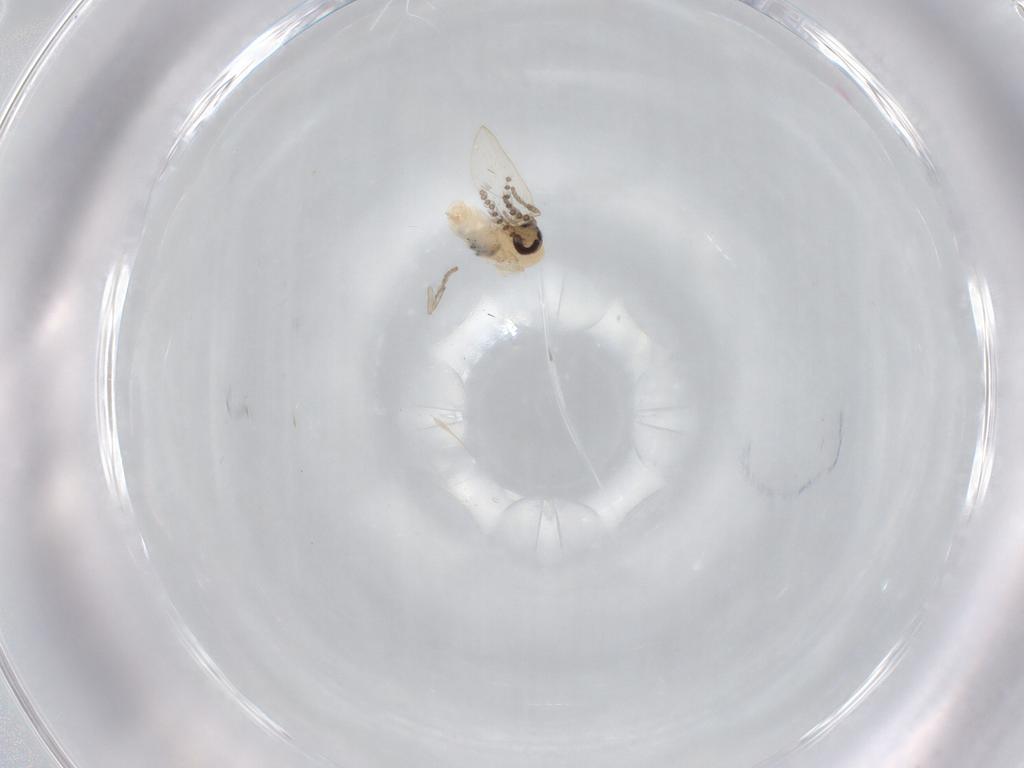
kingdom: Animalia
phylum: Arthropoda
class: Insecta
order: Diptera
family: Psychodidae
